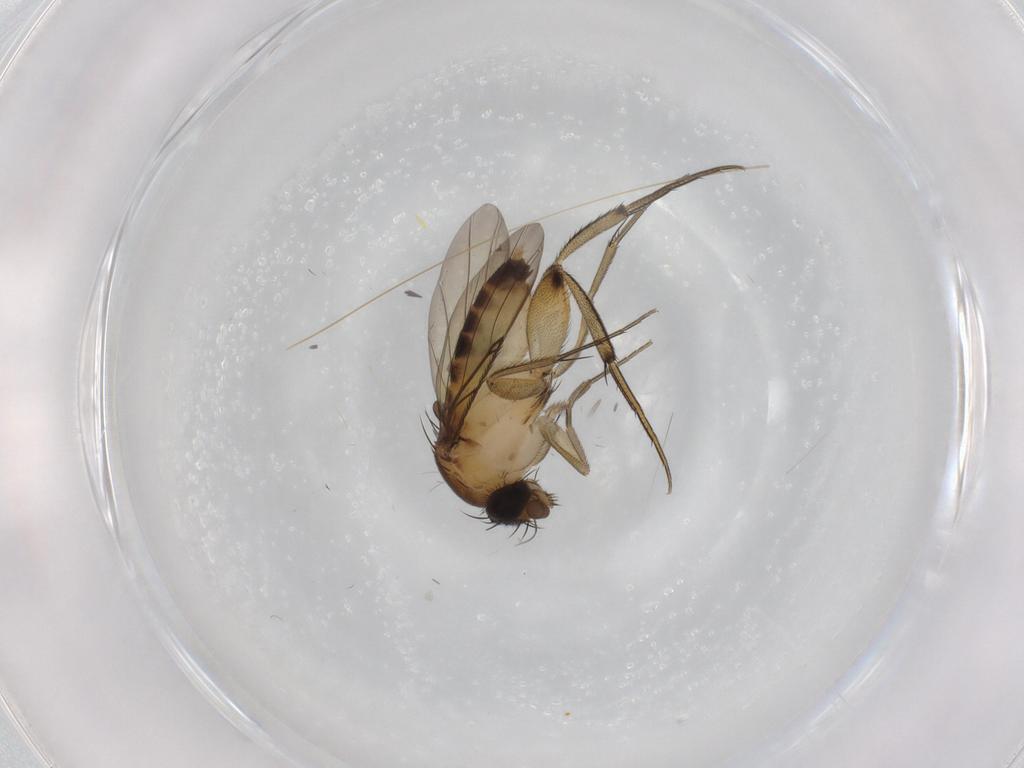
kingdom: Animalia
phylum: Arthropoda
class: Insecta
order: Diptera
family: Phoridae
